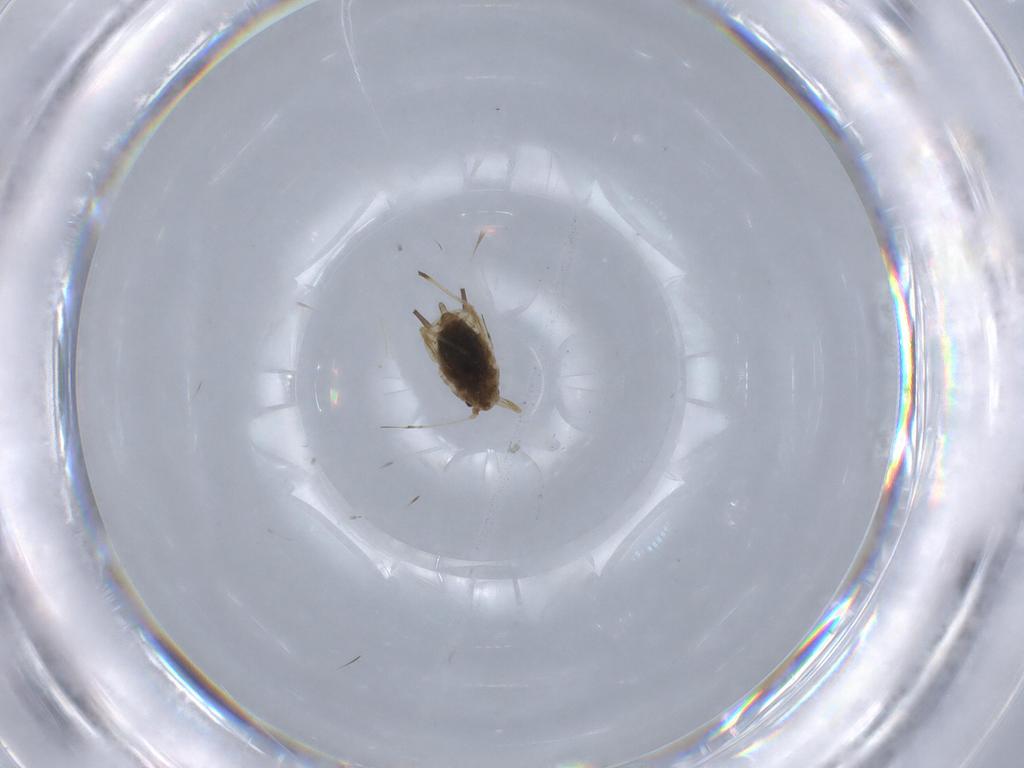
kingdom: Animalia
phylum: Arthropoda
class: Insecta
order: Hemiptera
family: Aphididae
